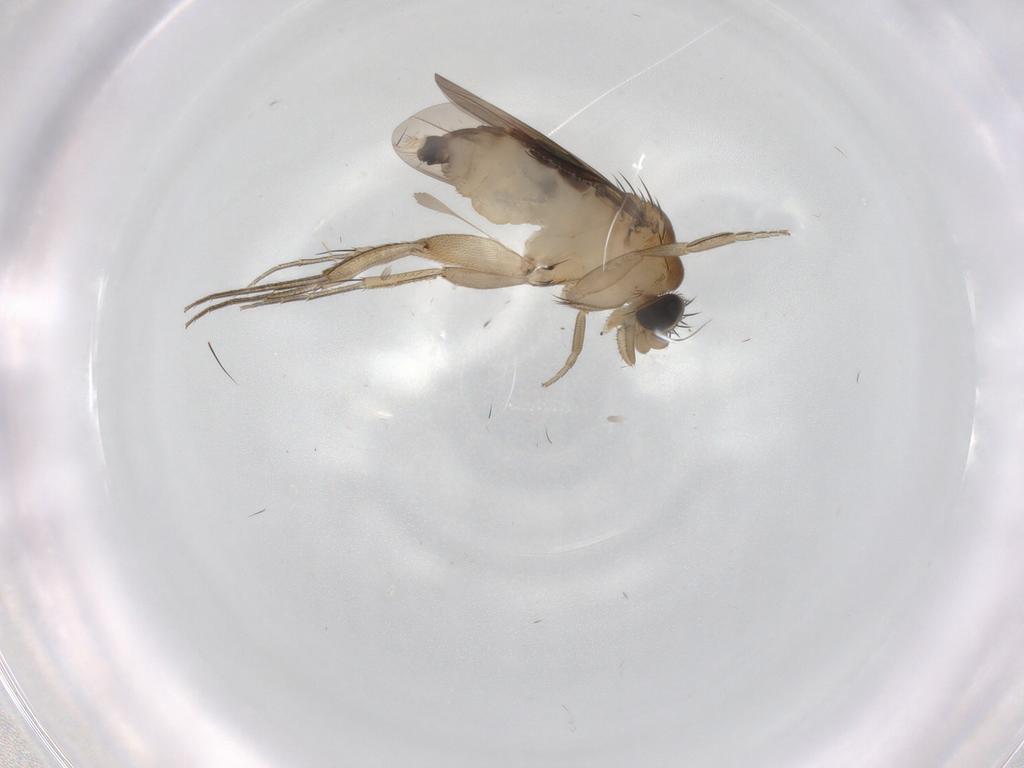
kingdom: Animalia
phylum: Arthropoda
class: Insecta
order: Diptera
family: Phoridae
